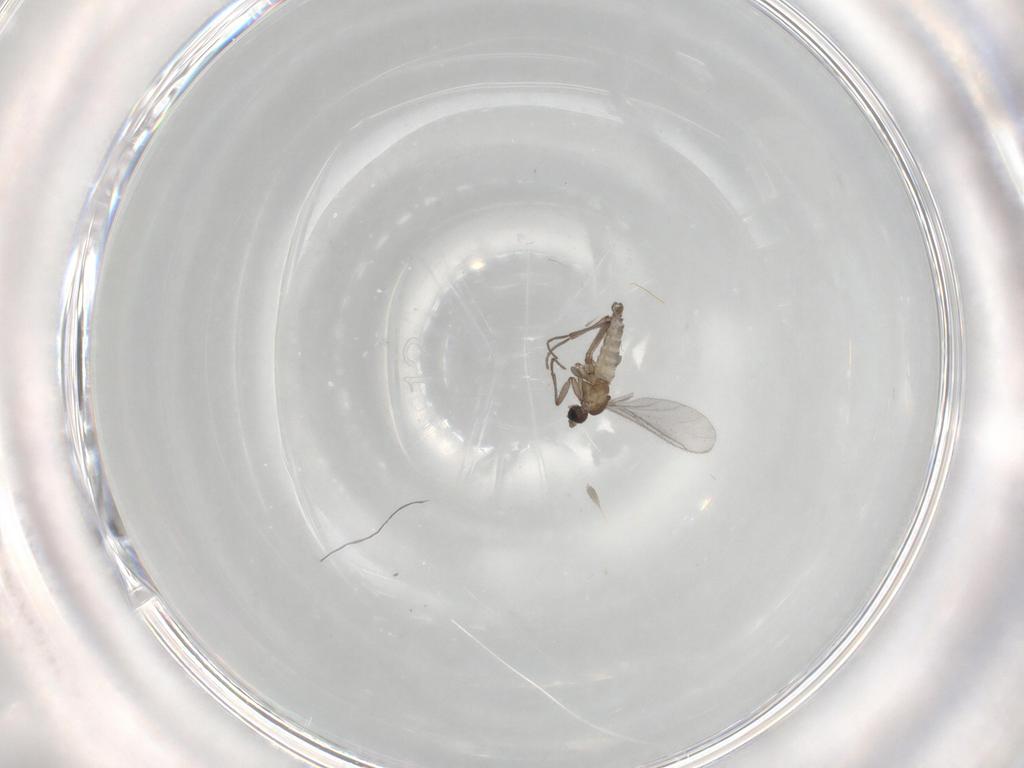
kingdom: Animalia
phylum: Arthropoda
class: Insecta
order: Diptera
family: Sciaridae
